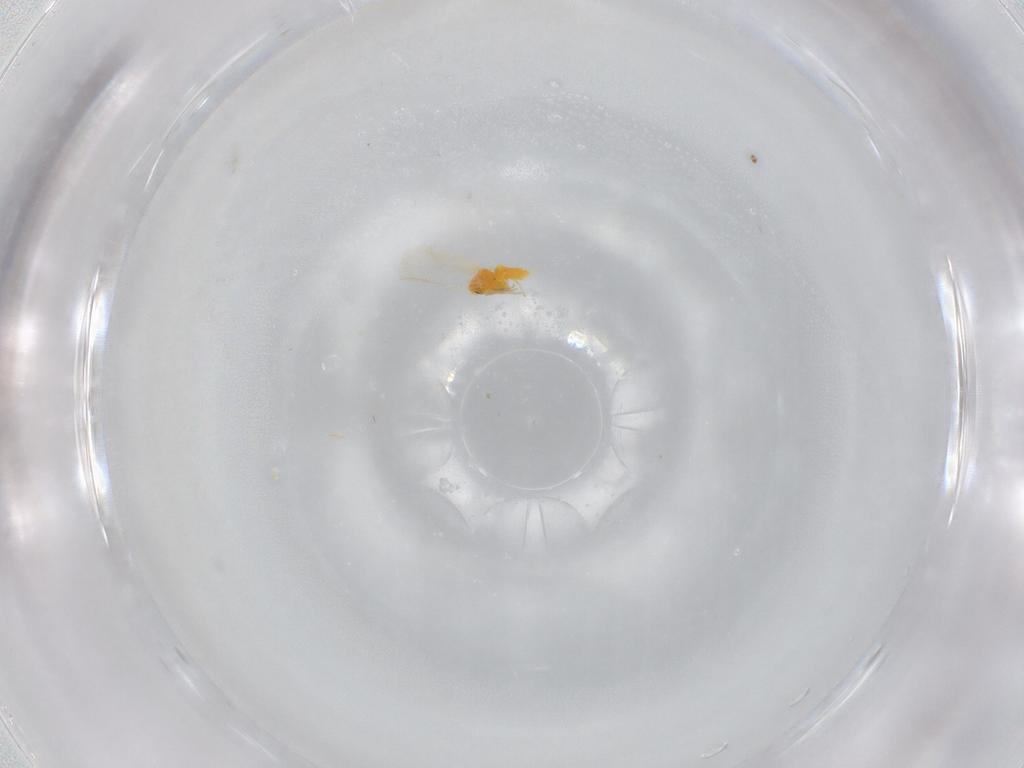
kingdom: Animalia
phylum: Arthropoda
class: Insecta
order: Hemiptera
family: Aleyrodidae
